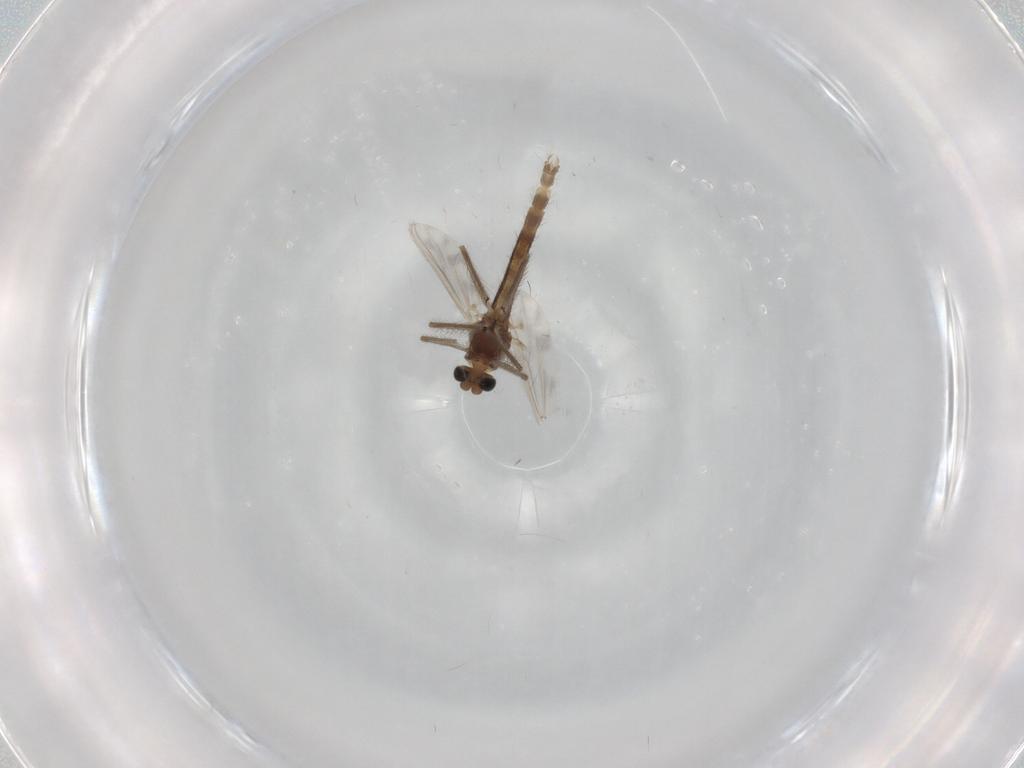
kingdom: Animalia
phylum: Arthropoda
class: Insecta
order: Diptera
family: Chironomidae
